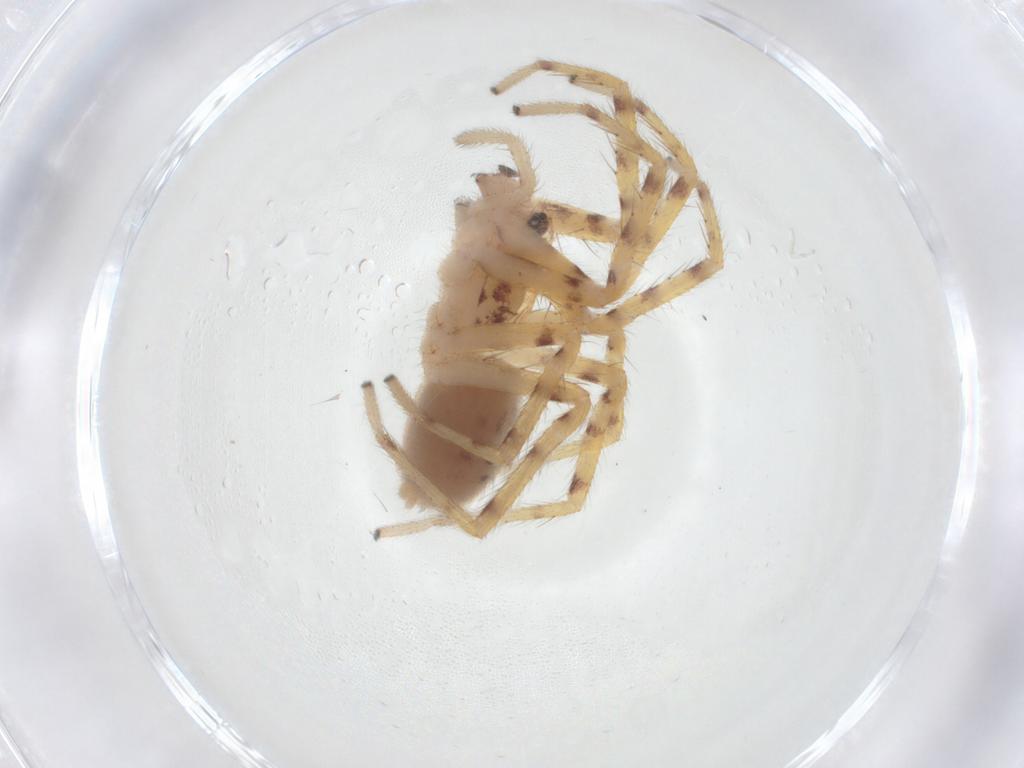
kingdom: Animalia
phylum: Arthropoda
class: Arachnida
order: Araneae
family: Corinnidae
